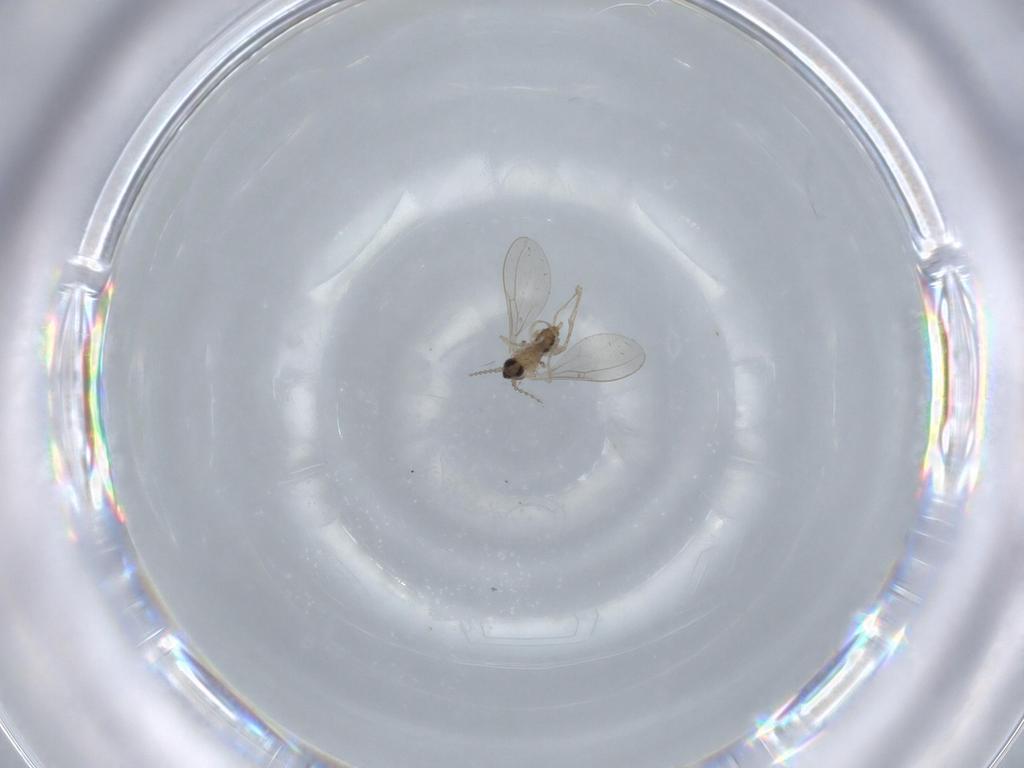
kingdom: Animalia
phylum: Arthropoda
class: Insecta
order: Diptera
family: Cecidomyiidae
